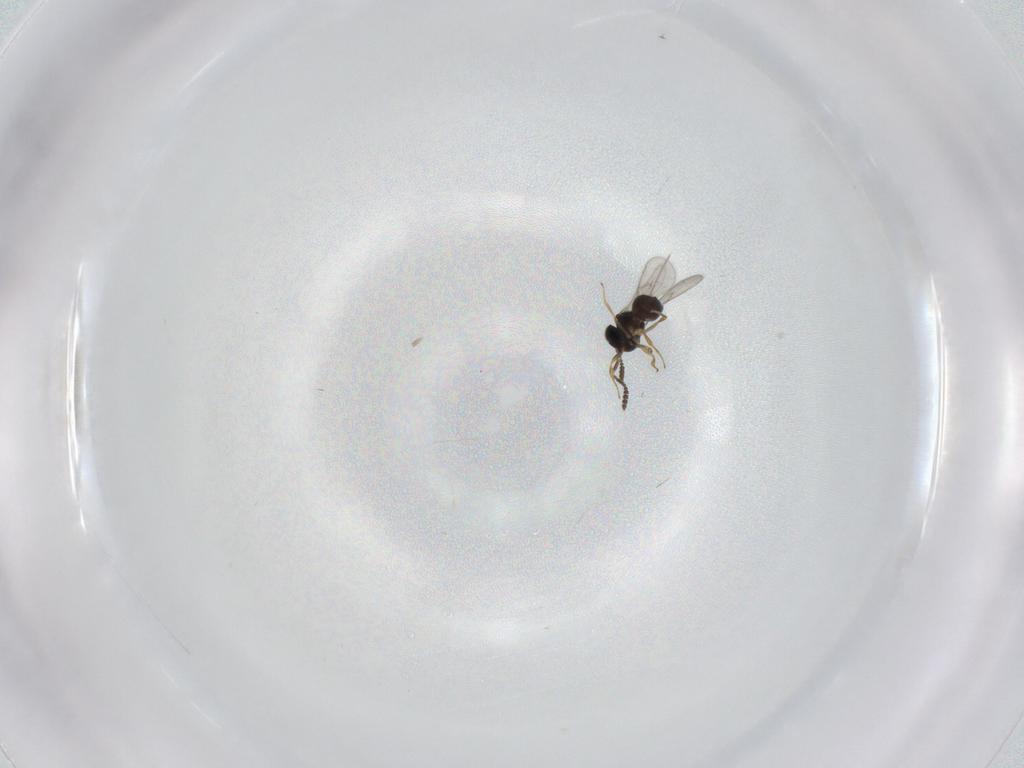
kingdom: Animalia
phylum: Arthropoda
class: Insecta
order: Hymenoptera
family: Scelionidae
